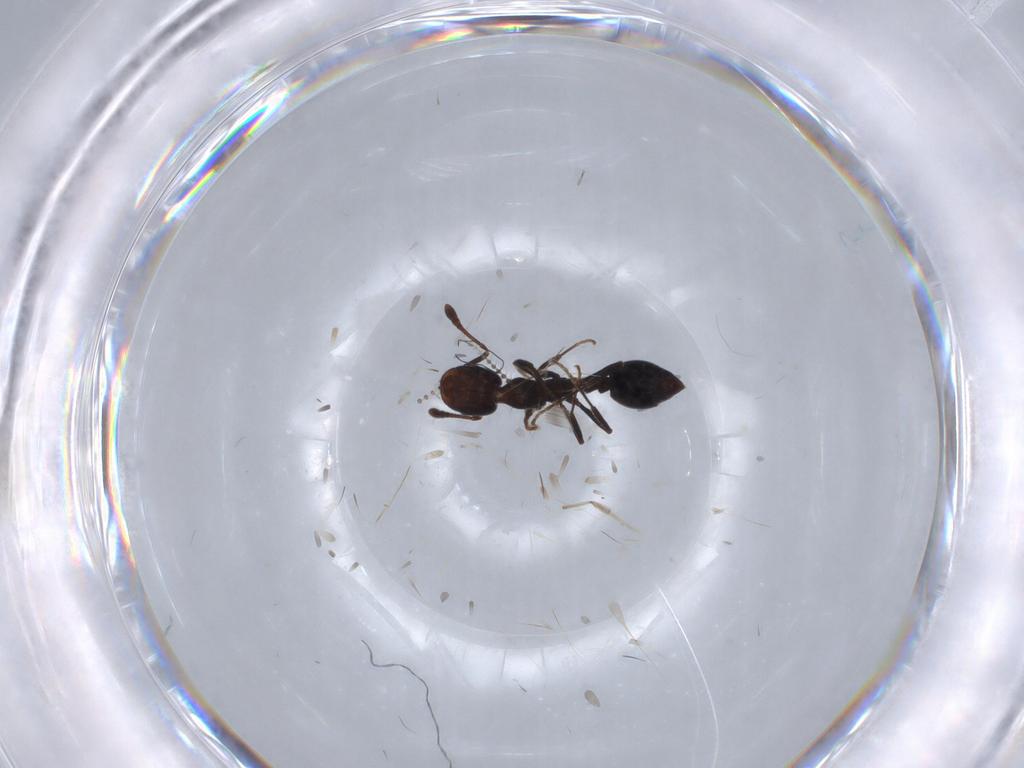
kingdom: Animalia
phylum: Arthropoda
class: Insecta
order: Hymenoptera
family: Formicidae
